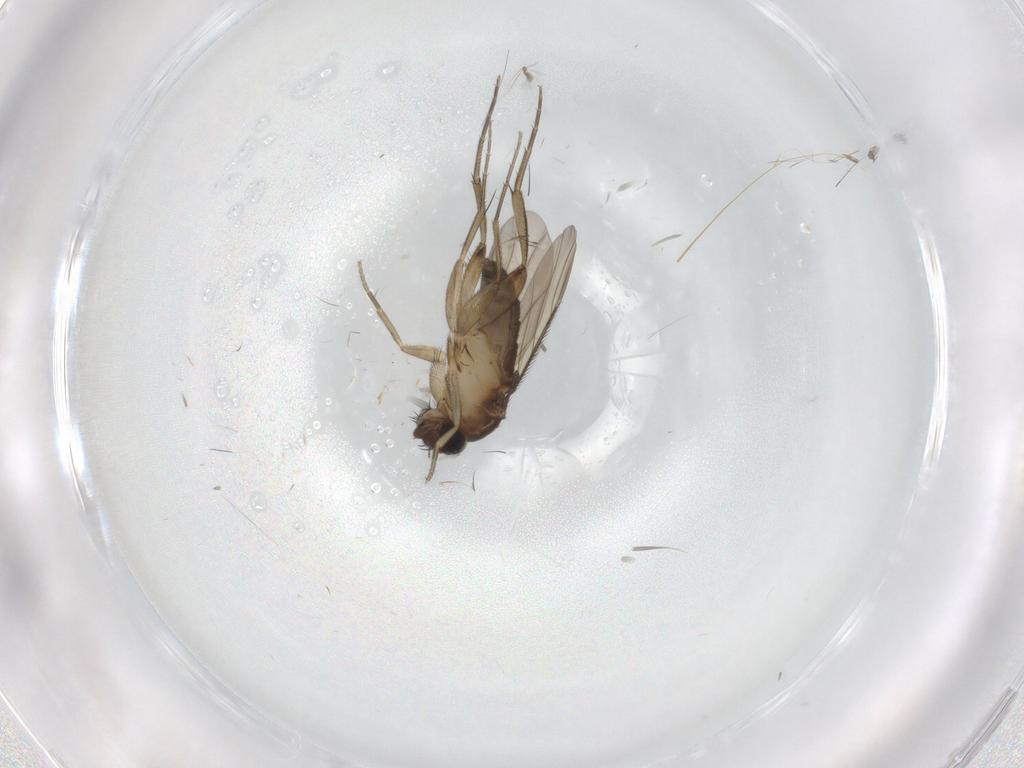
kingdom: Animalia
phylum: Arthropoda
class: Insecta
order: Diptera
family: Phoridae
